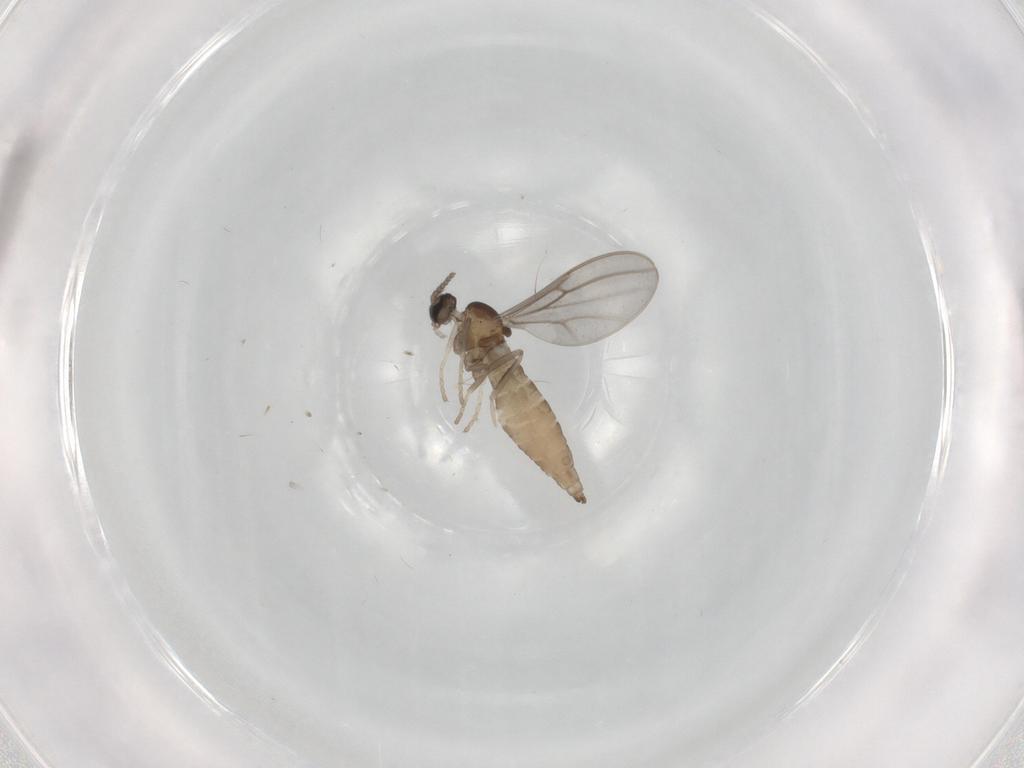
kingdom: Animalia
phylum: Arthropoda
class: Insecta
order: Diptera
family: Cecidomyiidae
